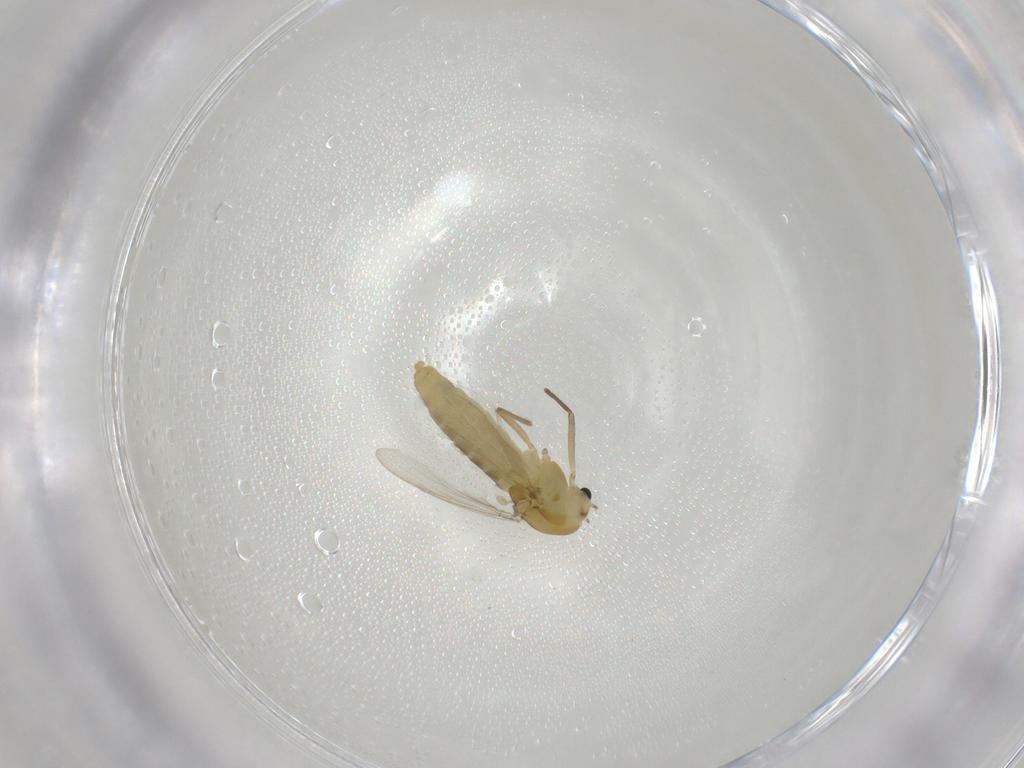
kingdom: Animalia
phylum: Arthropoda
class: Insecta
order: Diptera
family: Chironomidae
